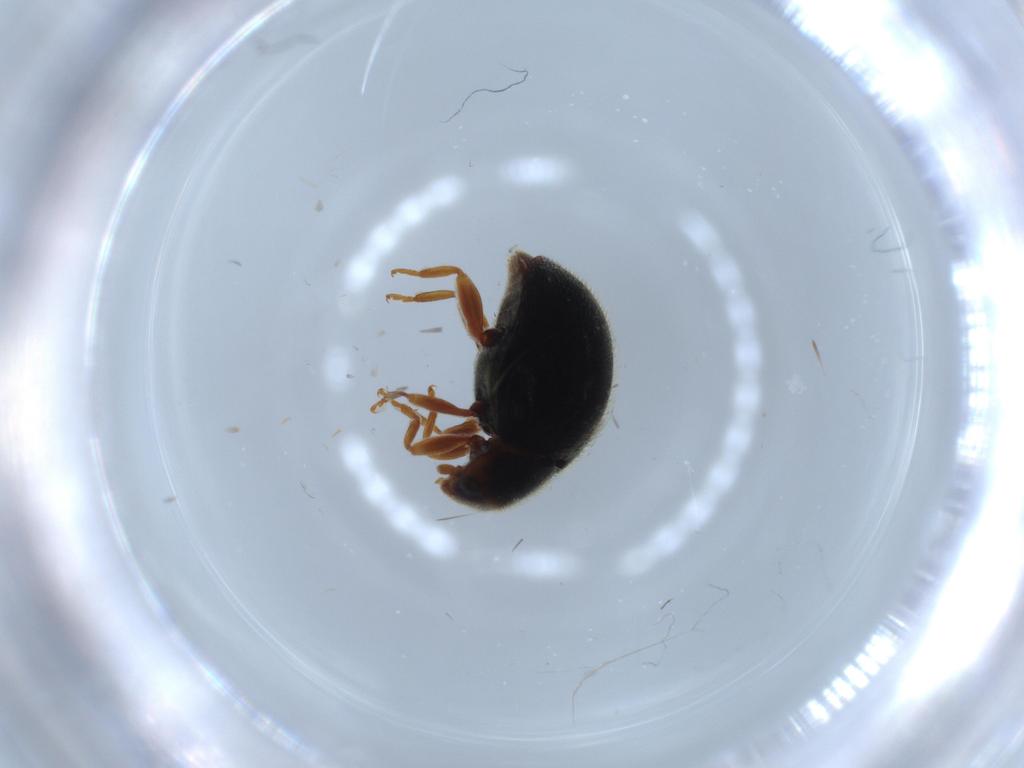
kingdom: Animalia
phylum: Arthropoda
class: Insecta
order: Coleoptera
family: Coccinellidae
